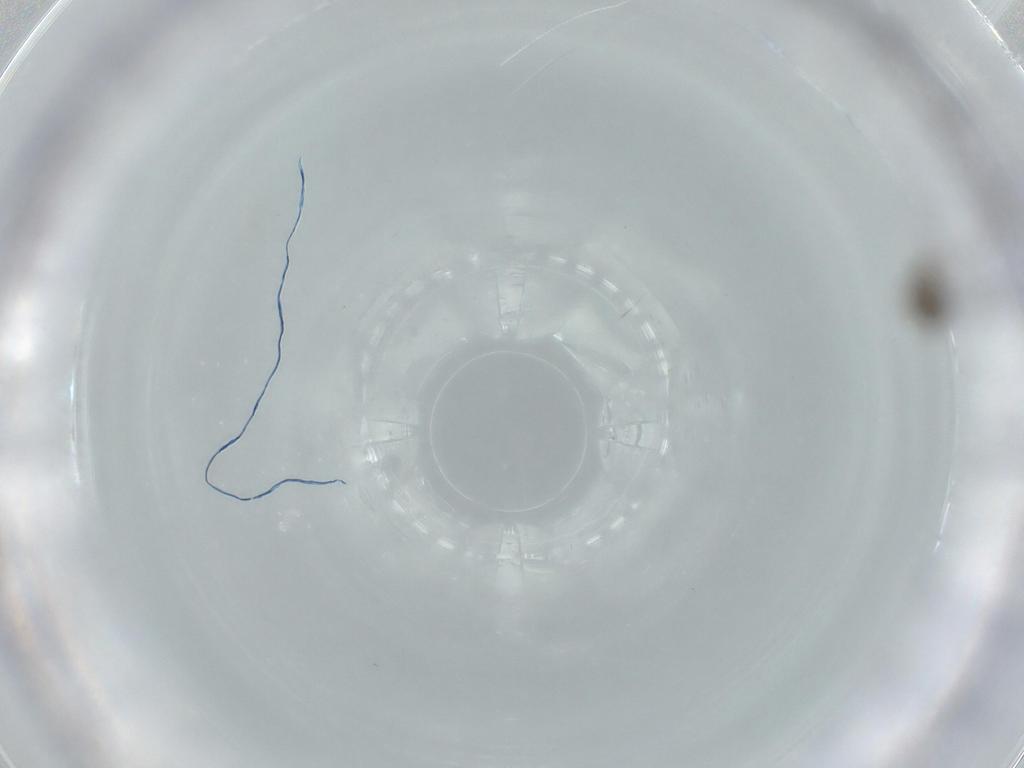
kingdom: Animalia
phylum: Arthropoda
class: Insecta
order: Diptera
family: Cecidomyiidae
